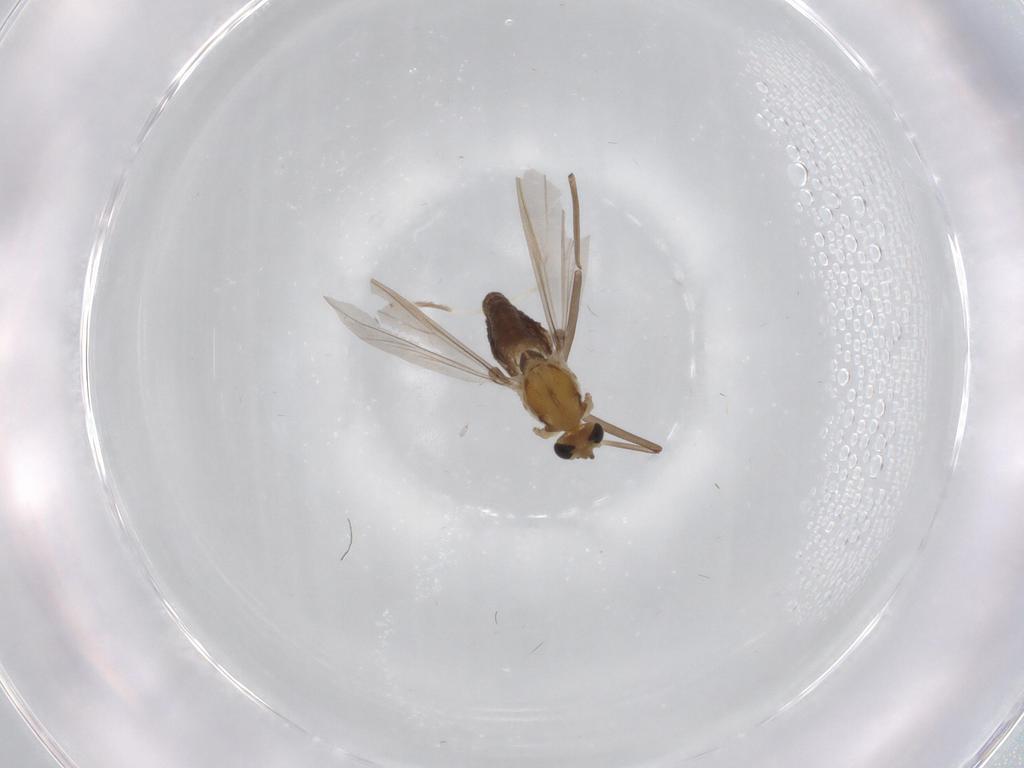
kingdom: Animalia
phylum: Arthropoda
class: Insecta
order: Diptera
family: Chironomidae
